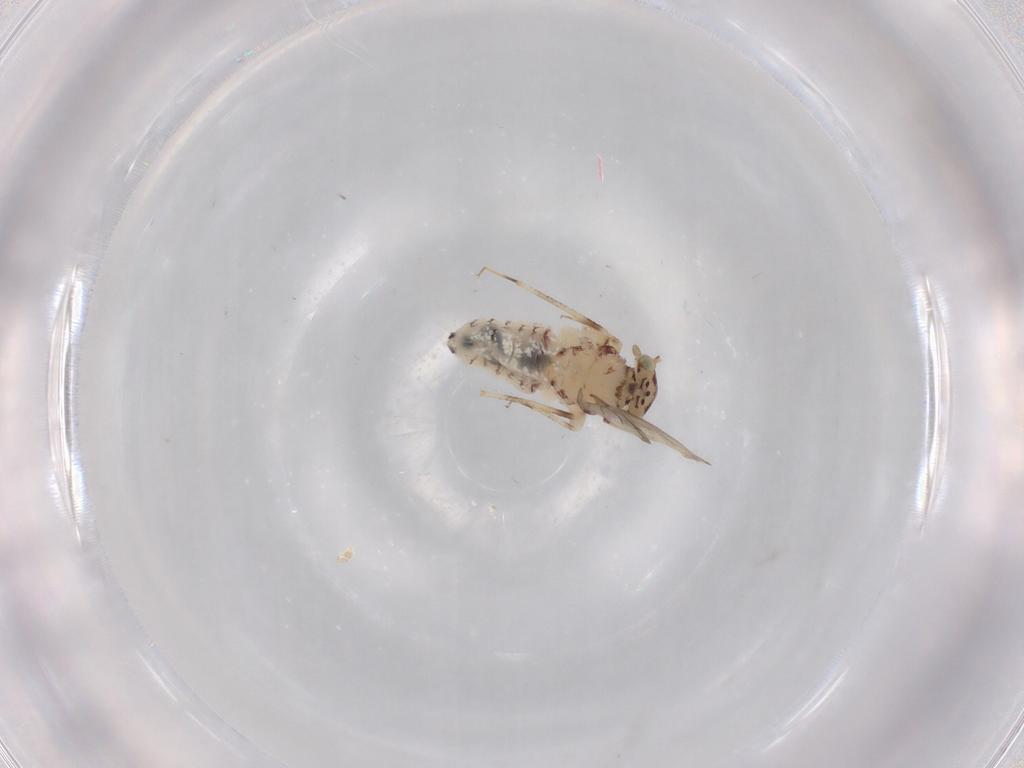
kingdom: Animalia
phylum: Arthropoda
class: Insecta
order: Psocodea
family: Lepidopsocidae
